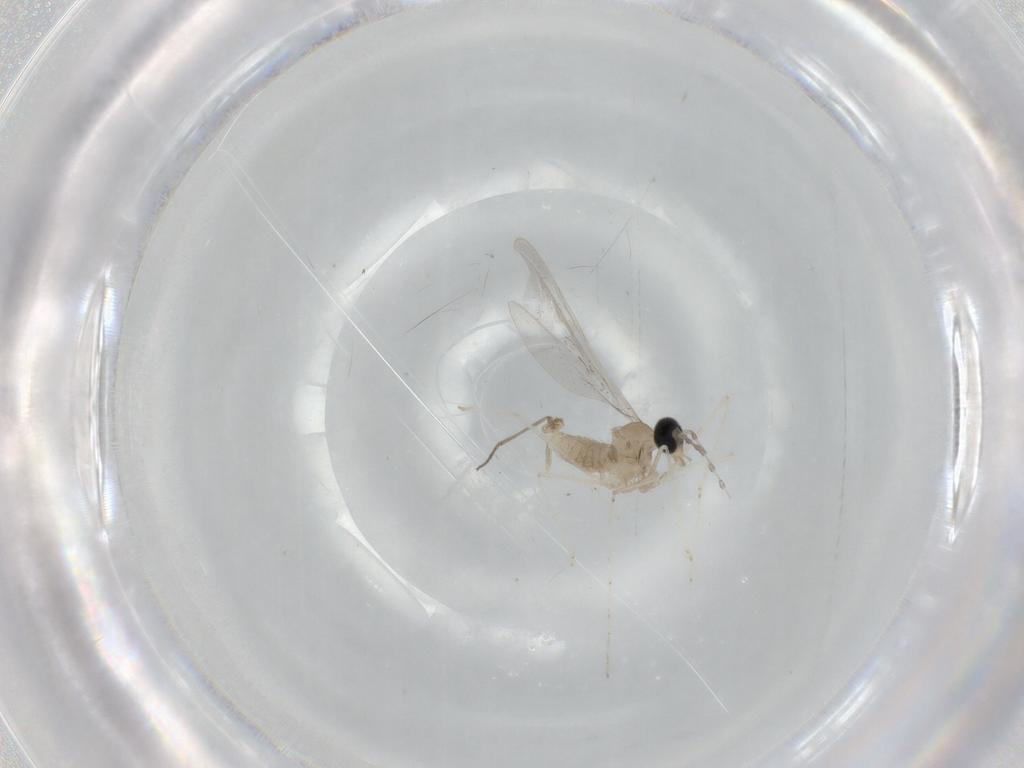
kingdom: Animalia
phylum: Arthropoda
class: Insecta
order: Diptera
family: Cecidomyiidae
